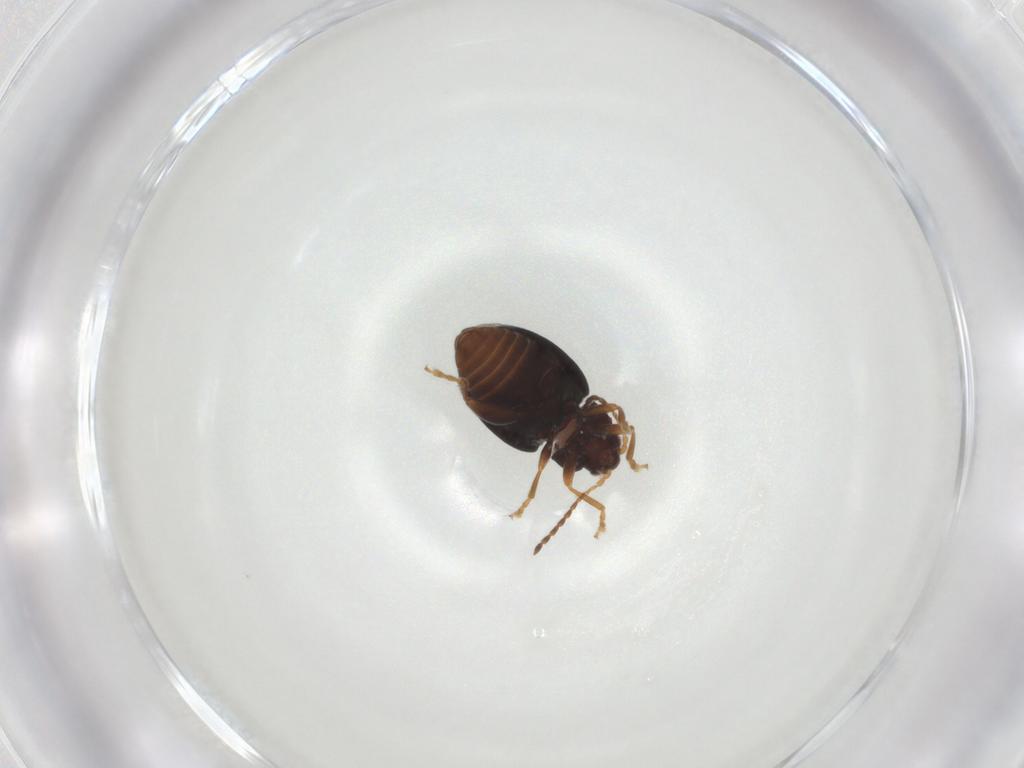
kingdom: Animalia
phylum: Arthropoda
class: Insecta
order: Coleoptera
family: Chrysomelidae
